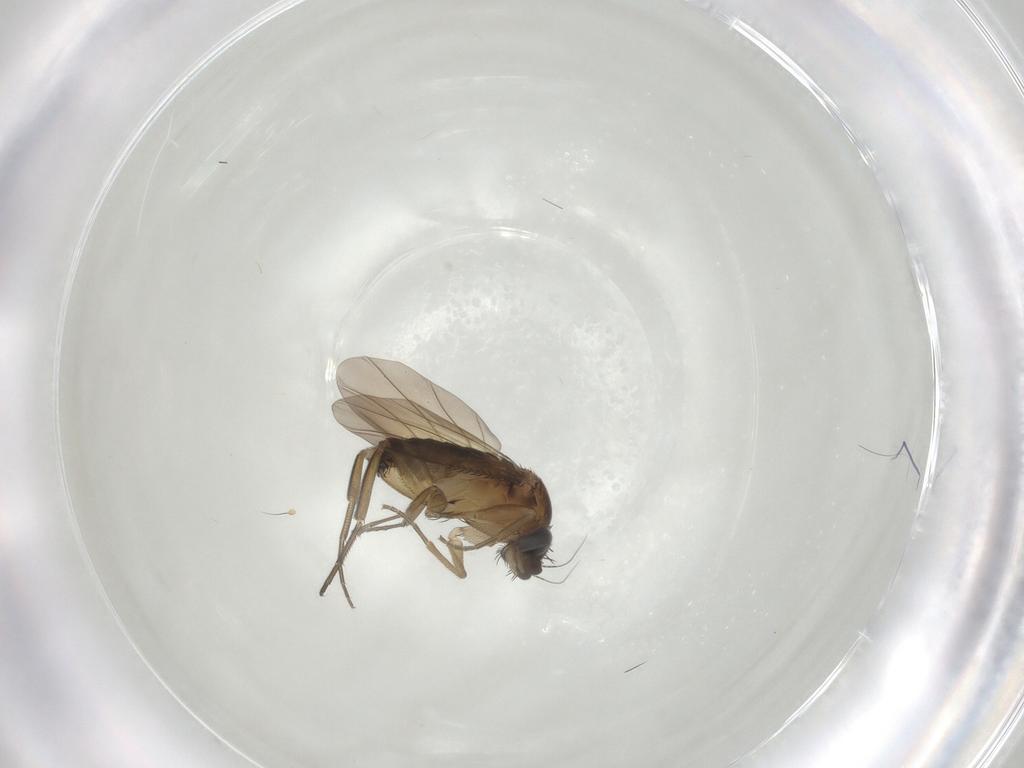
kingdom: Animalia
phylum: Arthropoda
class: Insecta
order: Diptera
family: Phoridae
